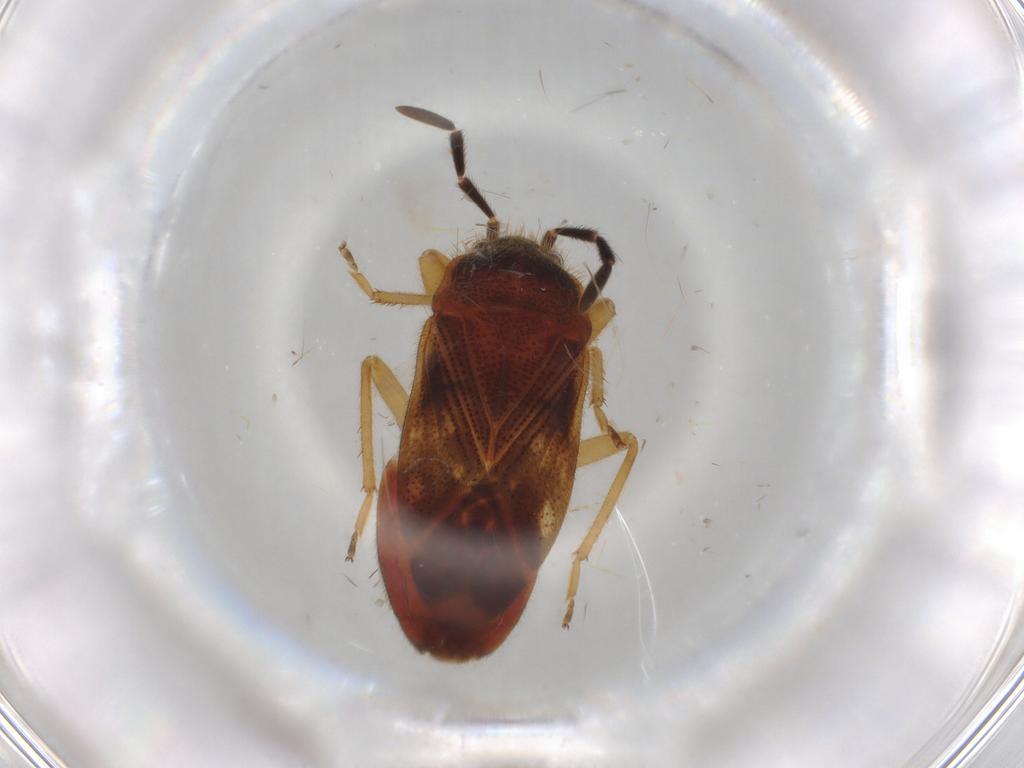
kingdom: Animalia
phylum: Arthropoda
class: Insecta
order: Hemiptera
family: Rhyparochromidae
